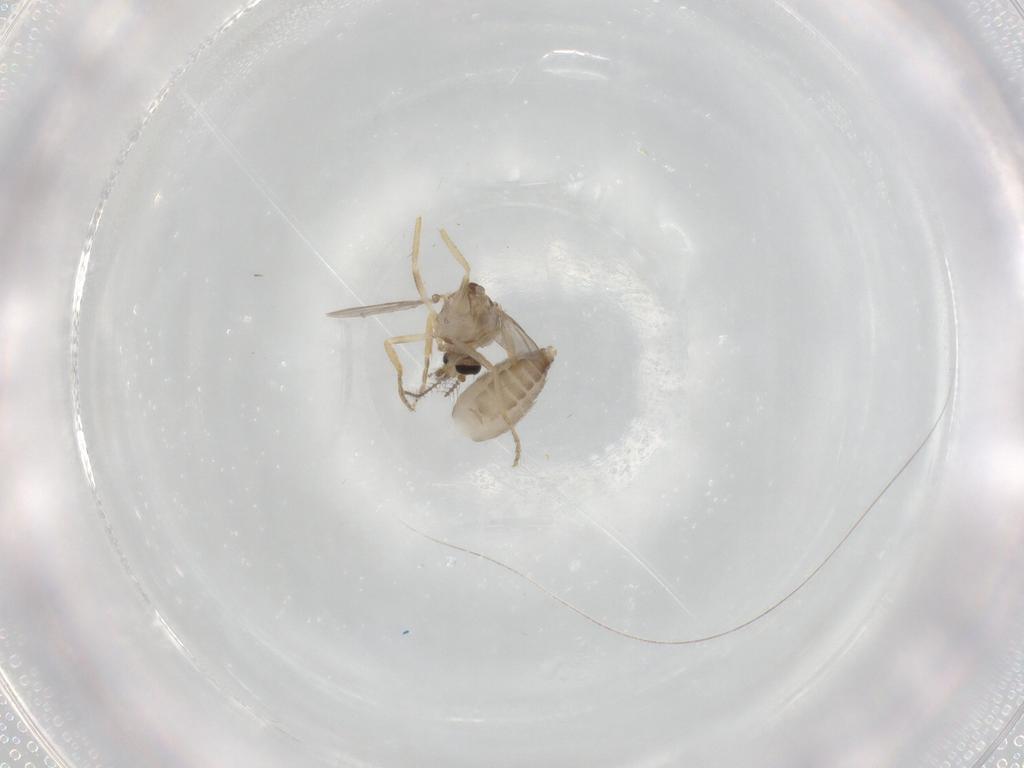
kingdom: Animalia
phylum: Arthropoda
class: Insecta
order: Diptera
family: Ceratopogonidae
